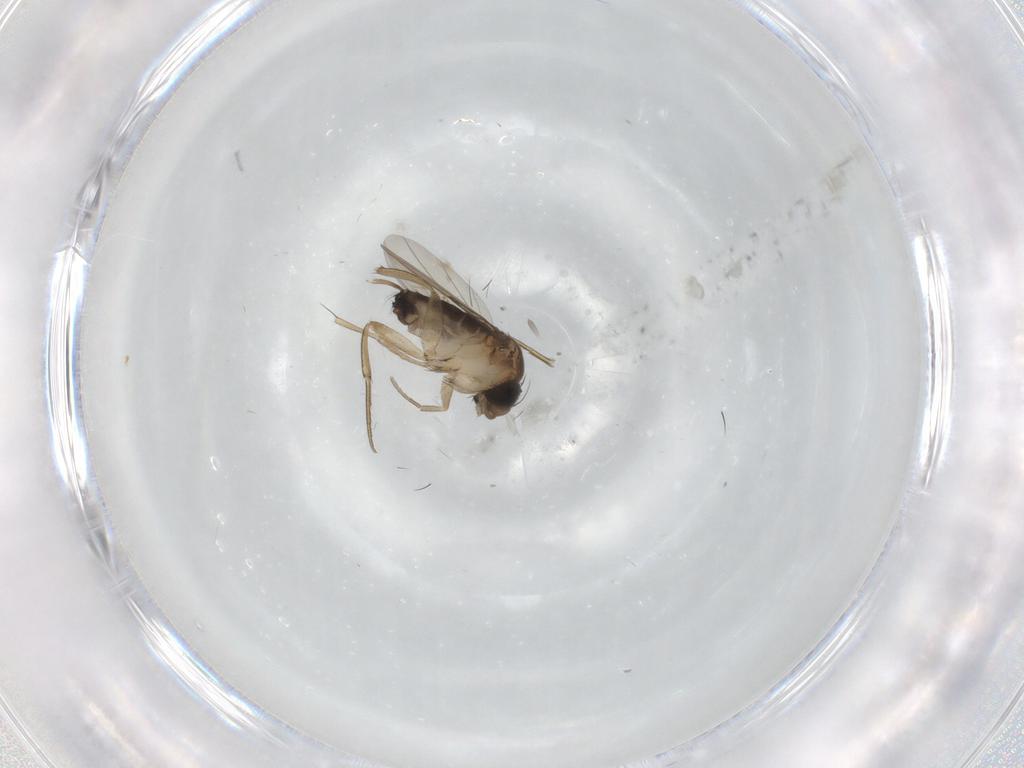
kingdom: Animalia
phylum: Arthropoda
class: Insecta
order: Diptera
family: Phoridae
